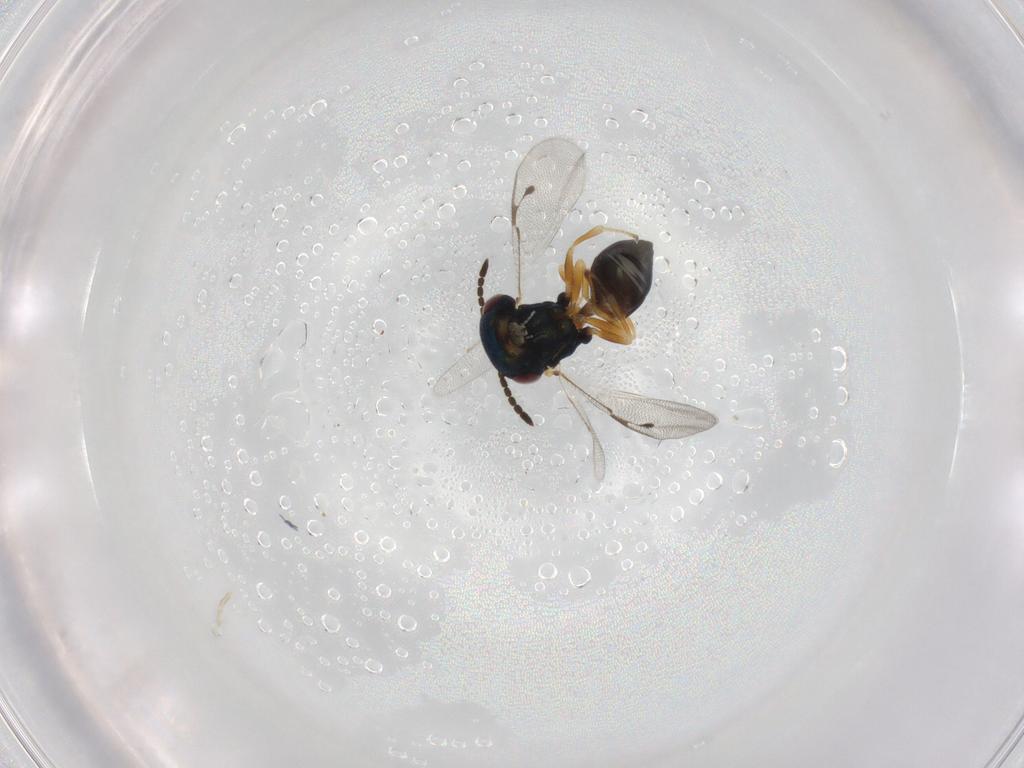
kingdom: Animalia
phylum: Arthropoda
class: Insecta
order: Hymenoptera
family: Pteromalidae
